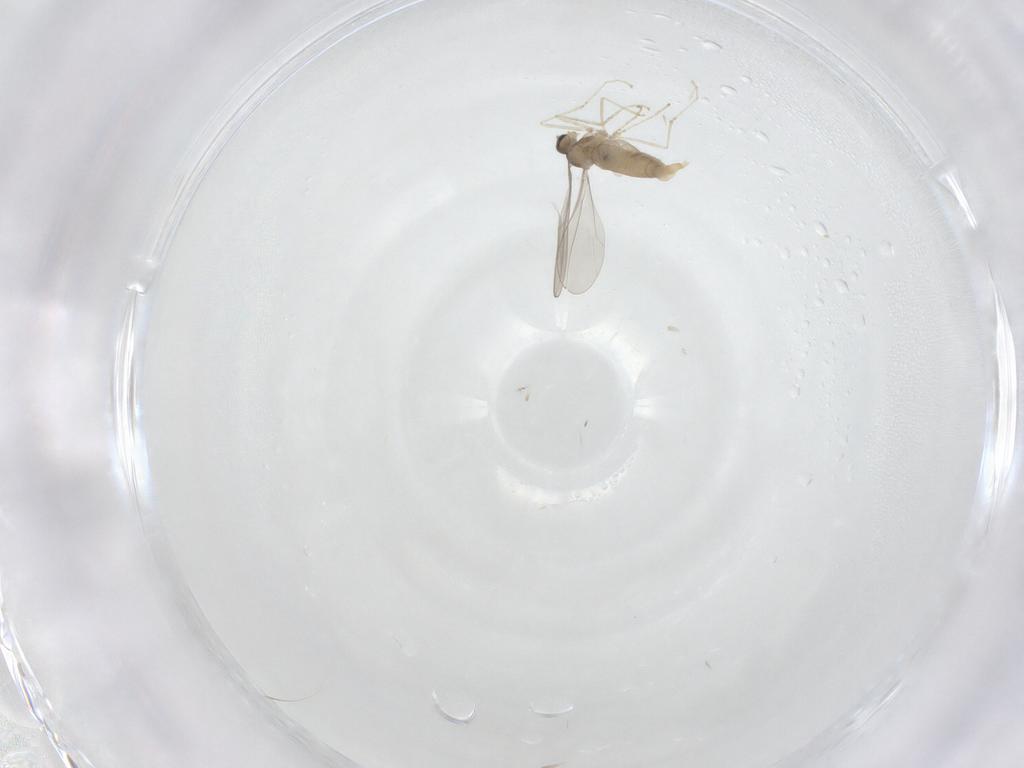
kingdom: Animalia
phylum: Arthropoda
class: Insecta
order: Diptera
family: Cecidomyiidae
